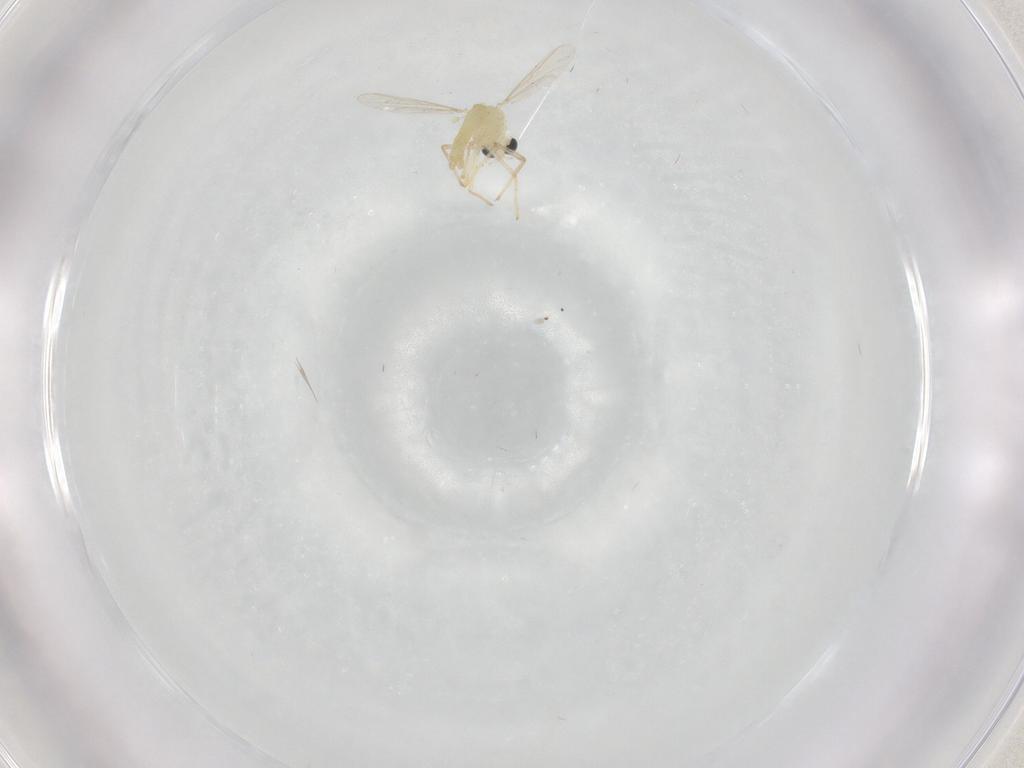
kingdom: Animalia
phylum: Arthropoda
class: Insecta
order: Diptera
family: Chironomidae
